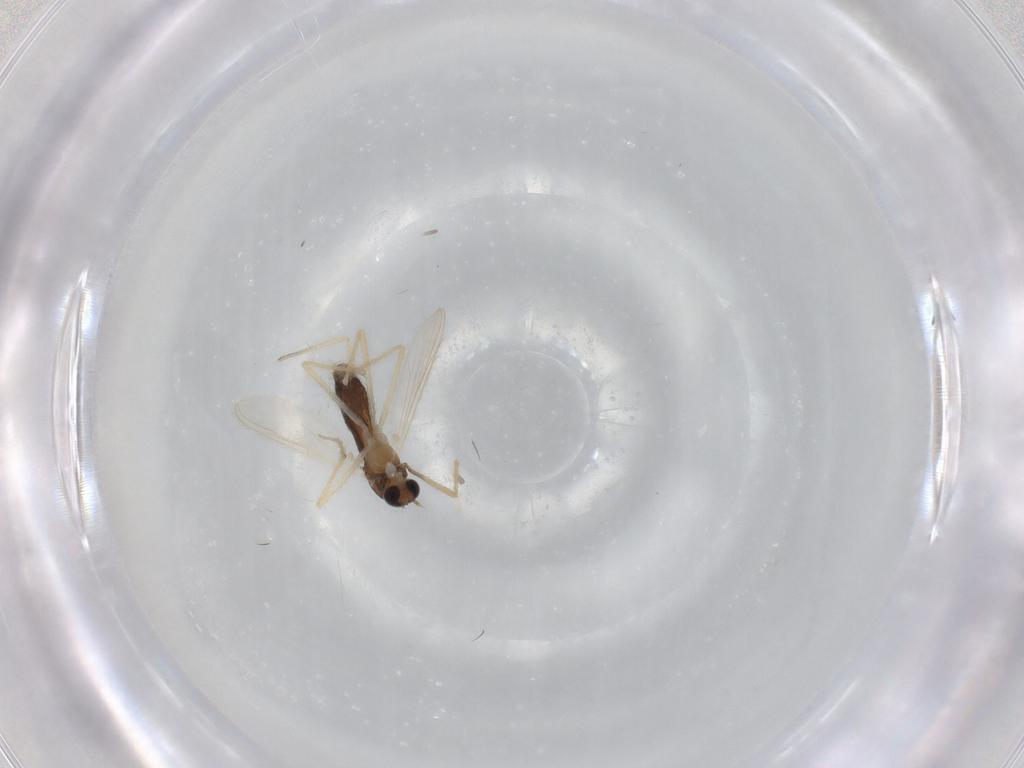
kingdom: Animalia
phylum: Arthropoda
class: Insecta
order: Diptera
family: Chironomidae
